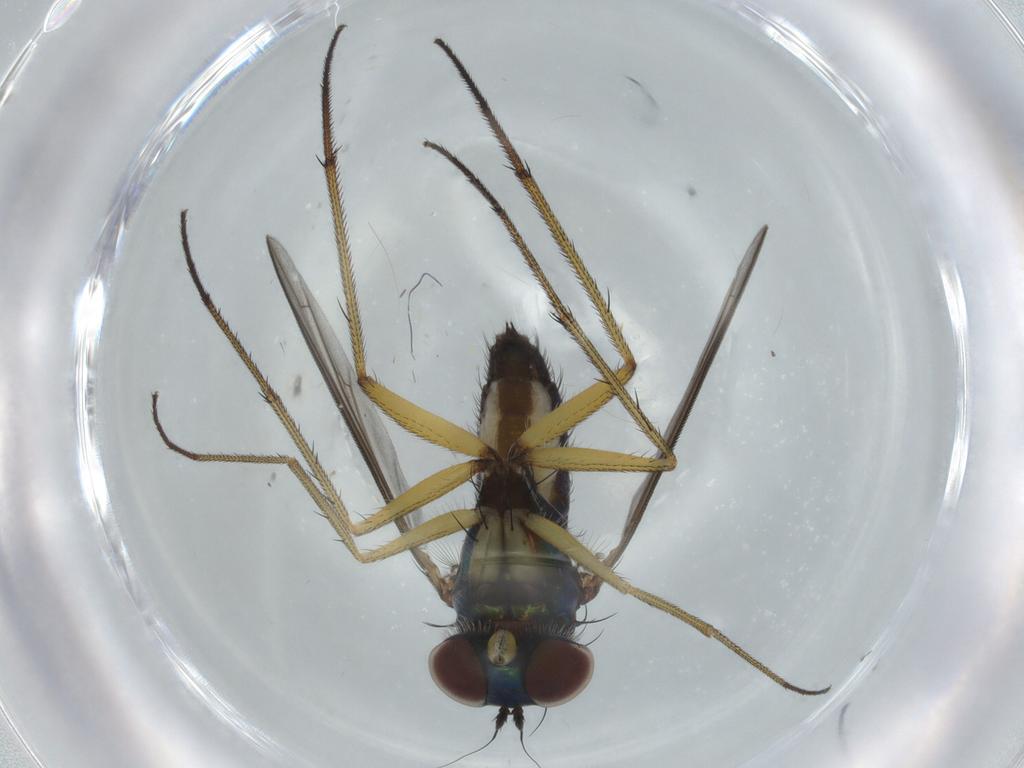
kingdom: Animalia
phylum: Arthropoda
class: Insecta
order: Diptera
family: Dolichopodidae
